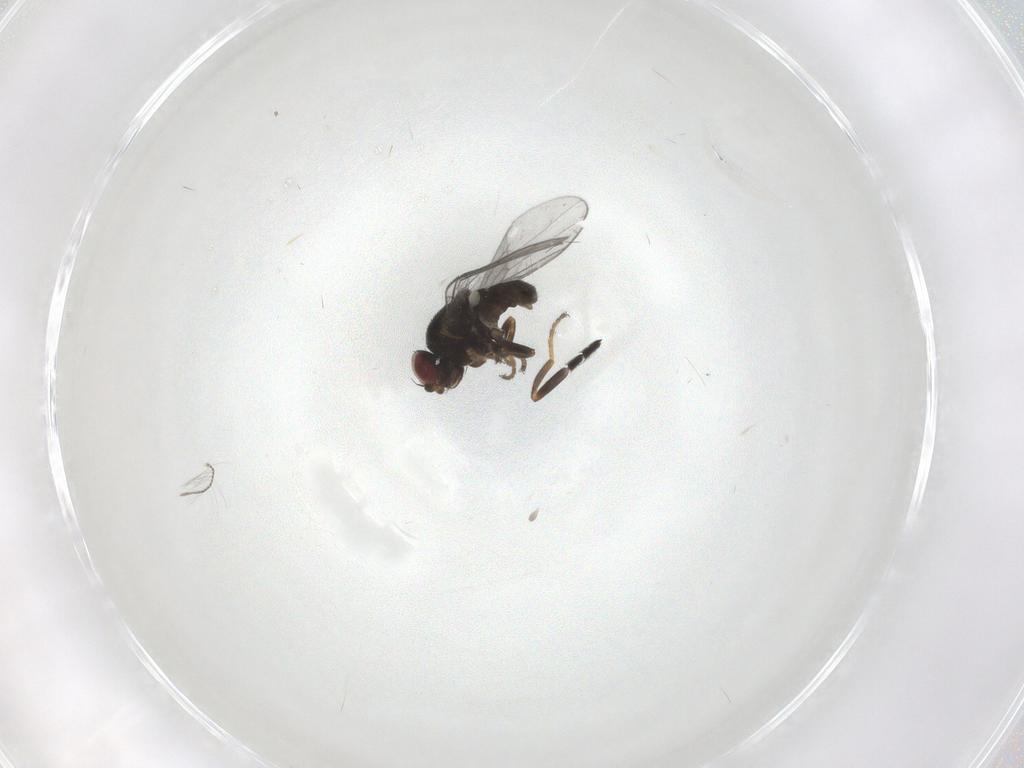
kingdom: Animalia
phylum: Arthropoda
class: Insecta
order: Diptera
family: Chloropidae
